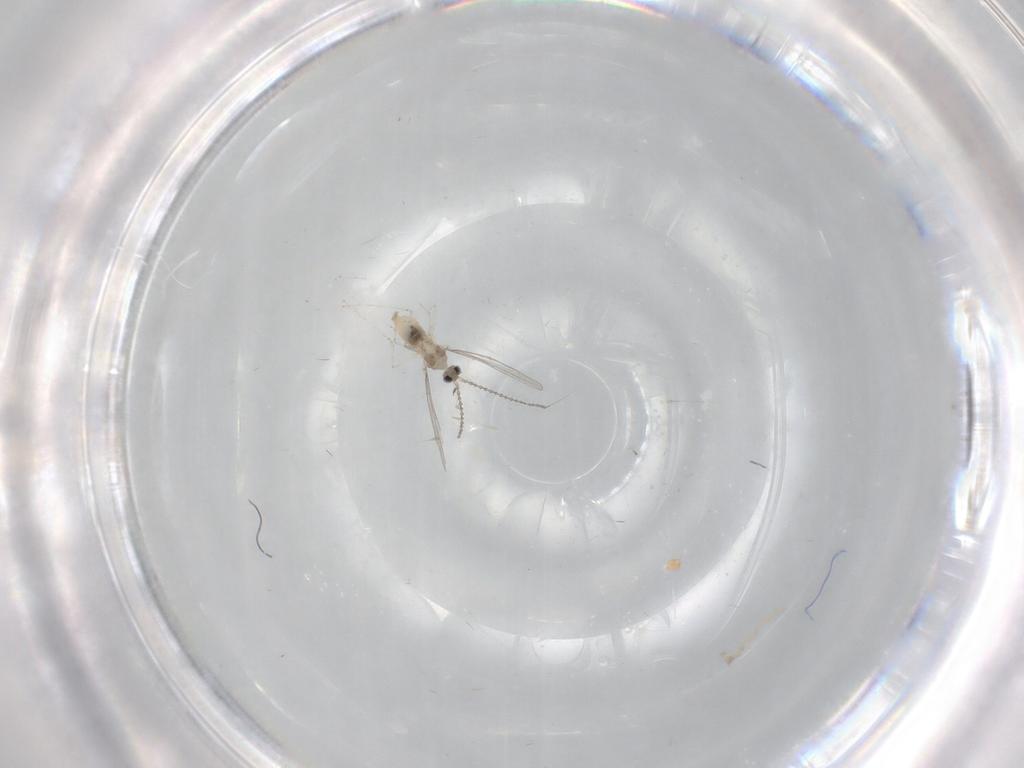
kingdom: Animalia
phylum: Arthropoda
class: Insecta
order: Diptera
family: Cecidomyiidae
